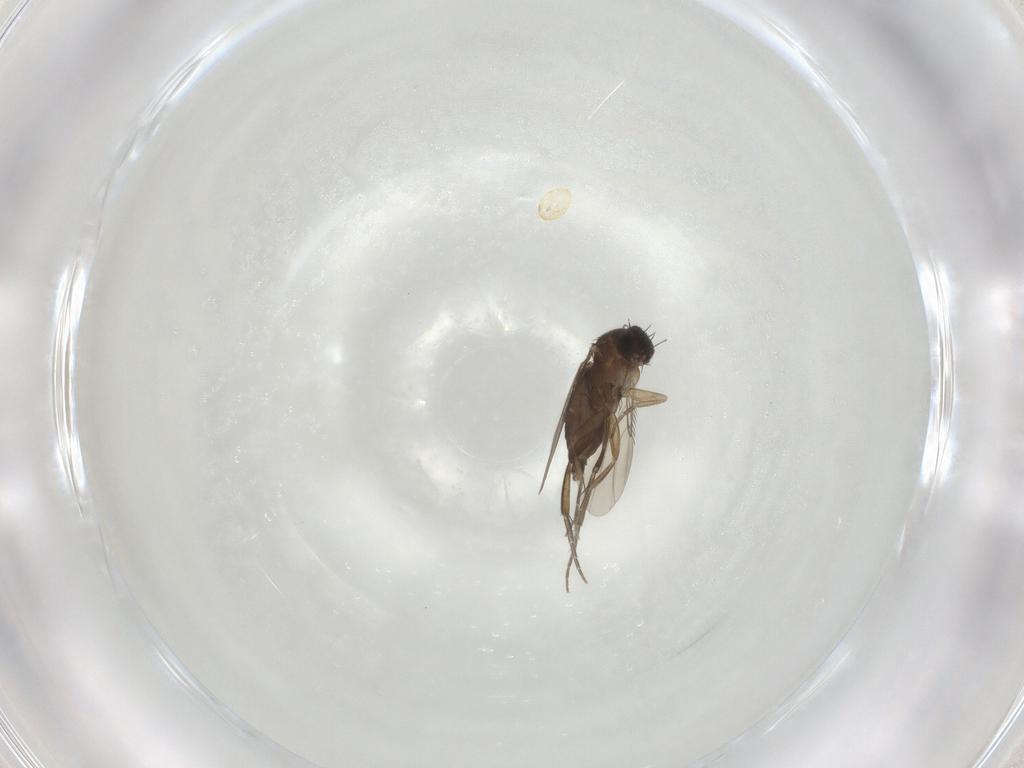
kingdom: Animalia
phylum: Arthropoda
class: Insecta
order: Diptera
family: Phoridae
